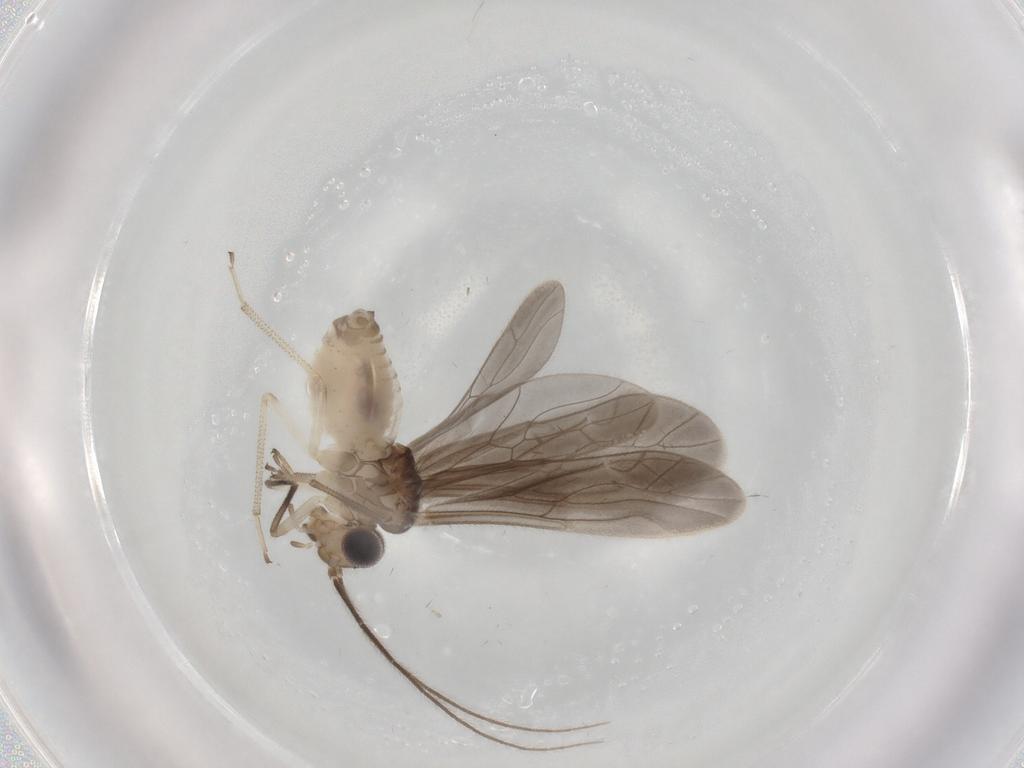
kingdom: Animalia
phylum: Arthropoda
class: Insecta
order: Psocodea
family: Caeciliusidae
